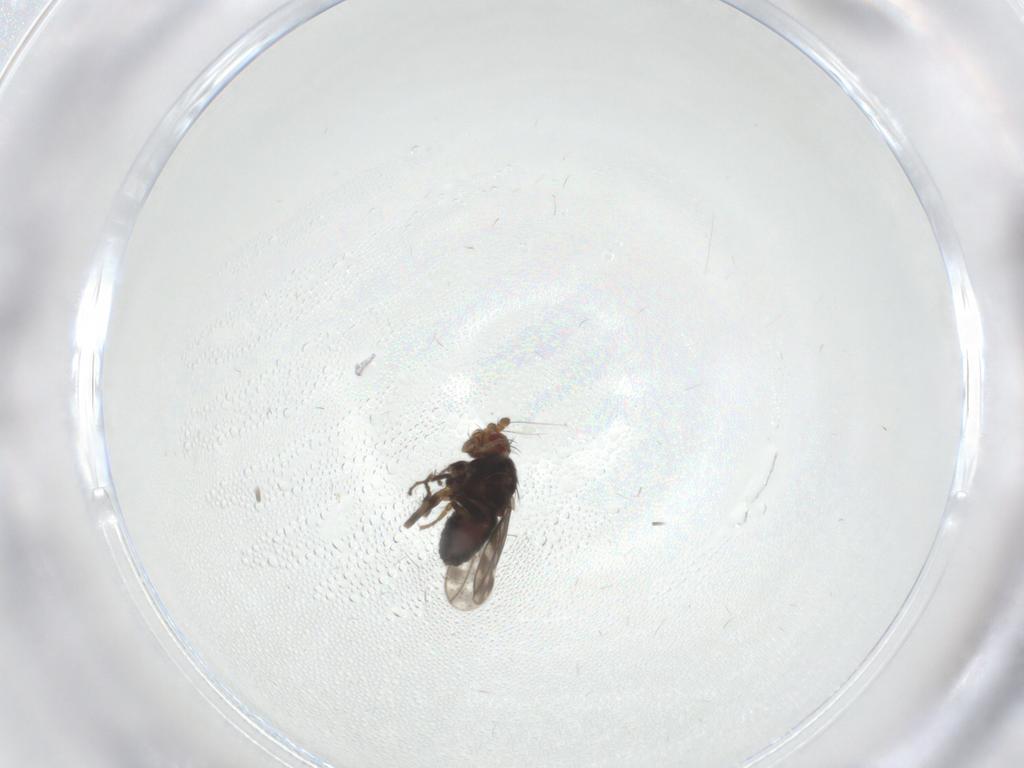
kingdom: Animalia
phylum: Arthropoda
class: Insecta
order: Diptera
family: Sphaeroceridae
